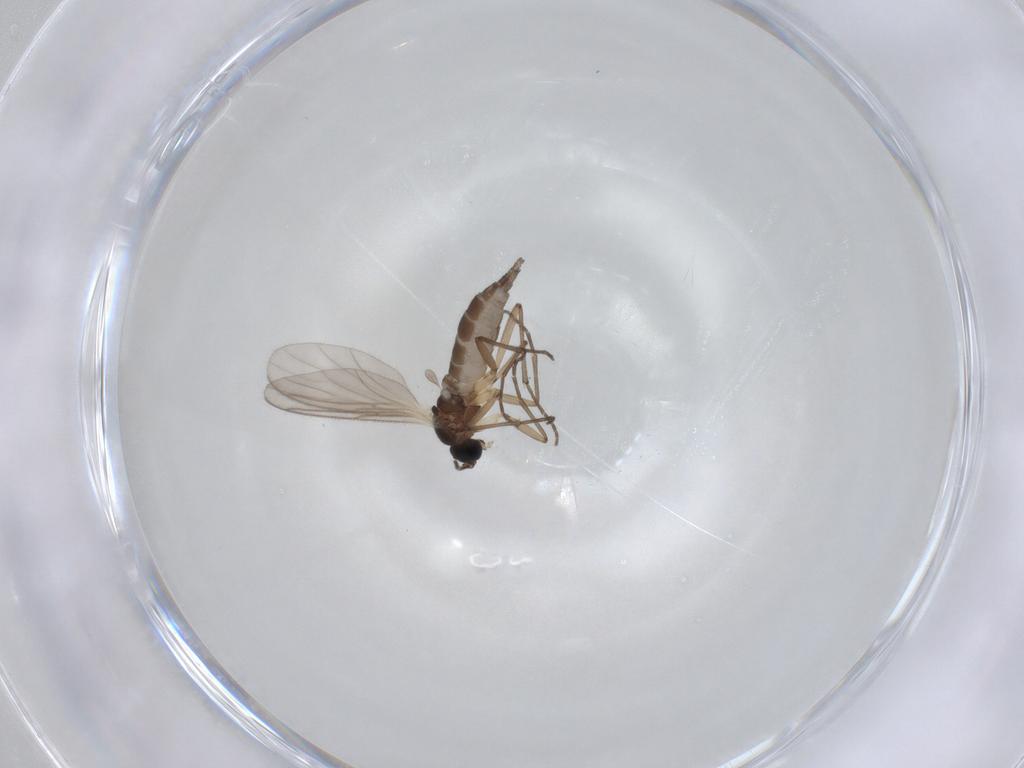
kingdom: Animalia
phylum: Arthropoda
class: Insecta
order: Diptera
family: Sciaridae
